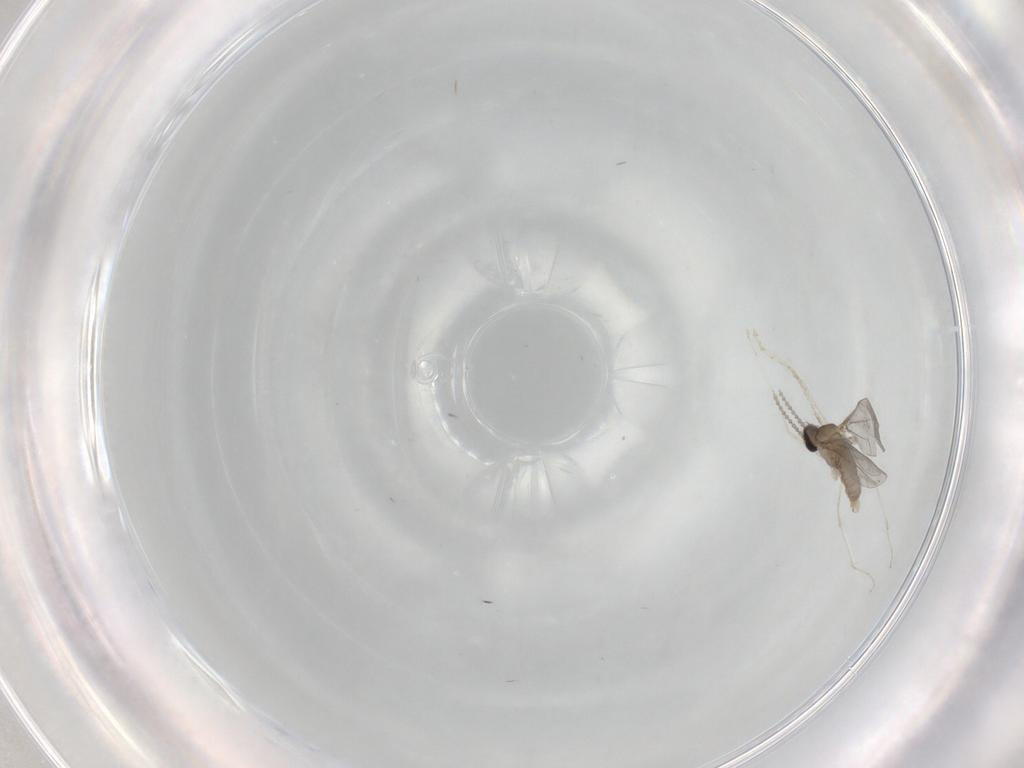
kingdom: Animalia
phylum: Arthropoda
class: Insecta
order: Diptera
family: Cecidomyiidae
